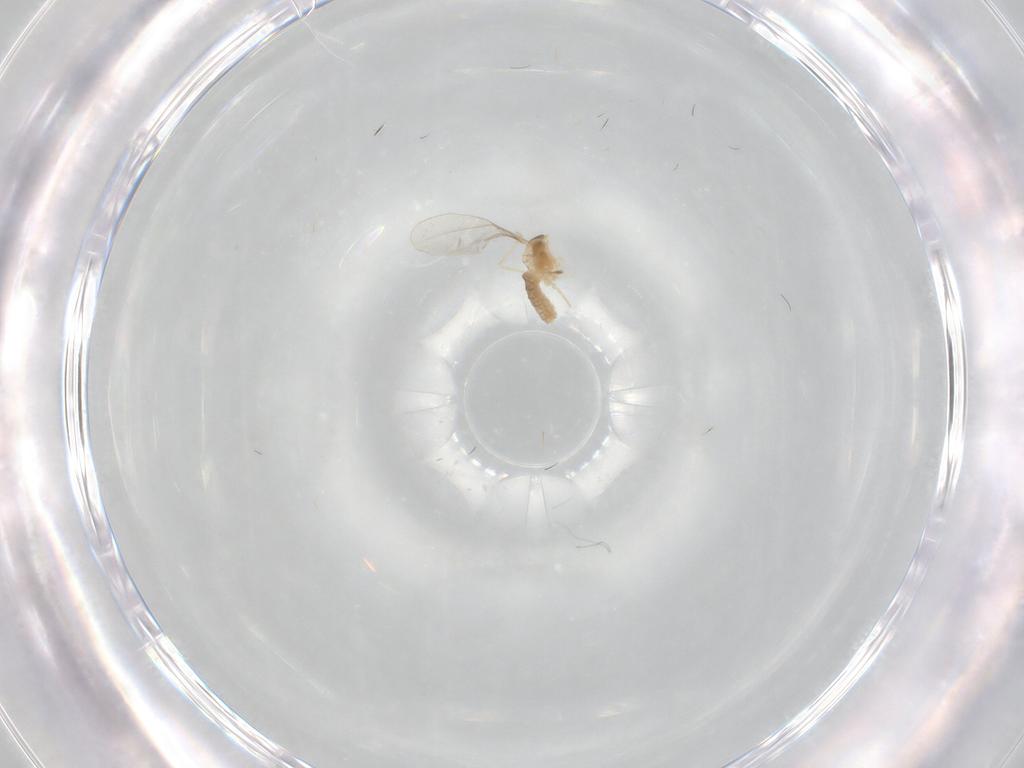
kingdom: Animalia
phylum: Arthropoda
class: Insecta
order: Diptera
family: Cecidomyiidae
